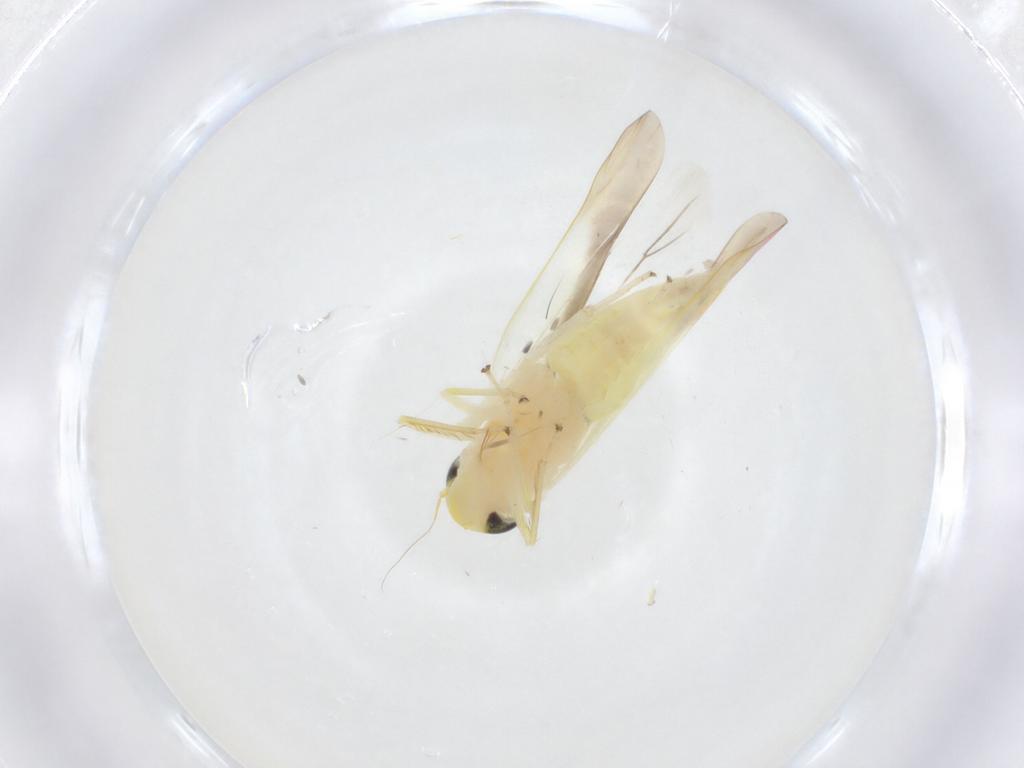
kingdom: Animalia
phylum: Arthropoda
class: Insecta
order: Hemiptera
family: Cicadellidae
